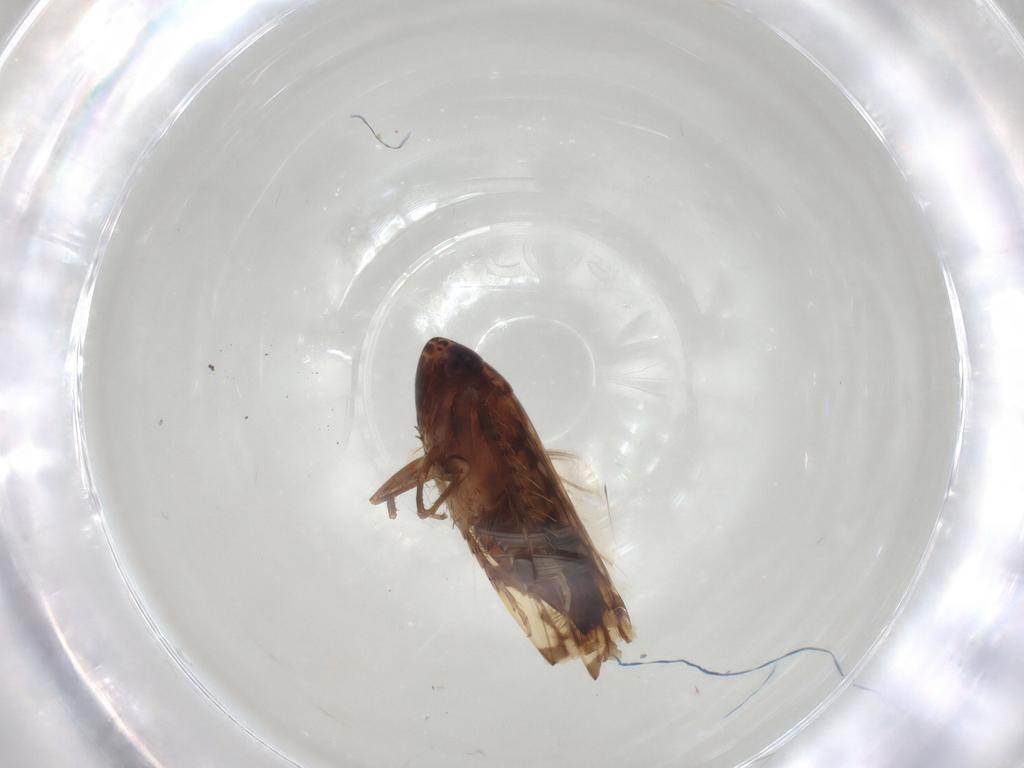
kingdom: Animalia
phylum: Arthropoda
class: Insecta
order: Hemiptera
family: Cicadellidae
